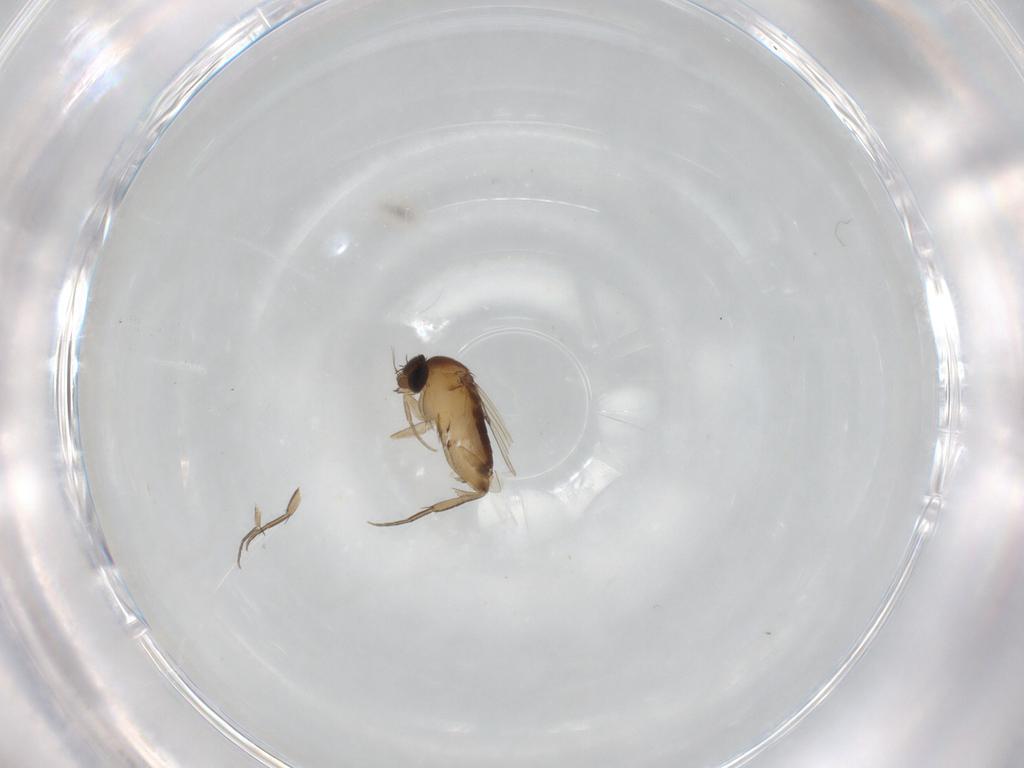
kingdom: Animalia
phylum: Arthropoda
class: Insecta
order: Diptera
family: Phoridae
